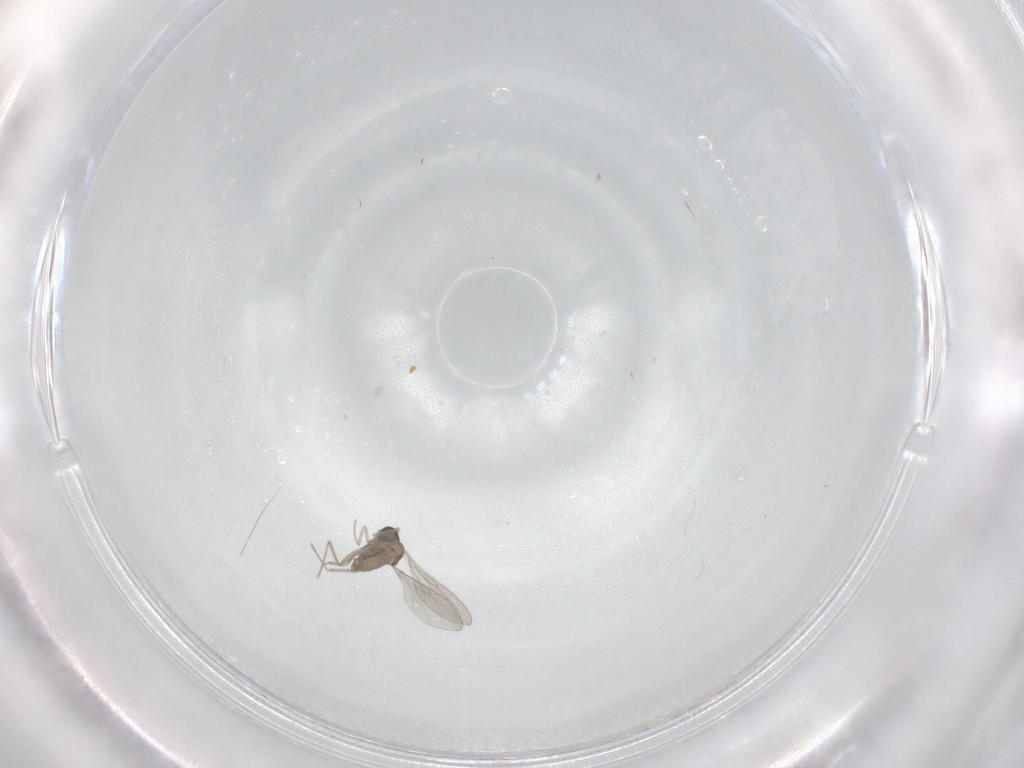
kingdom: Animalia
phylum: Arthropoda
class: Insecta
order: Diptera
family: Cecidomyiidae
